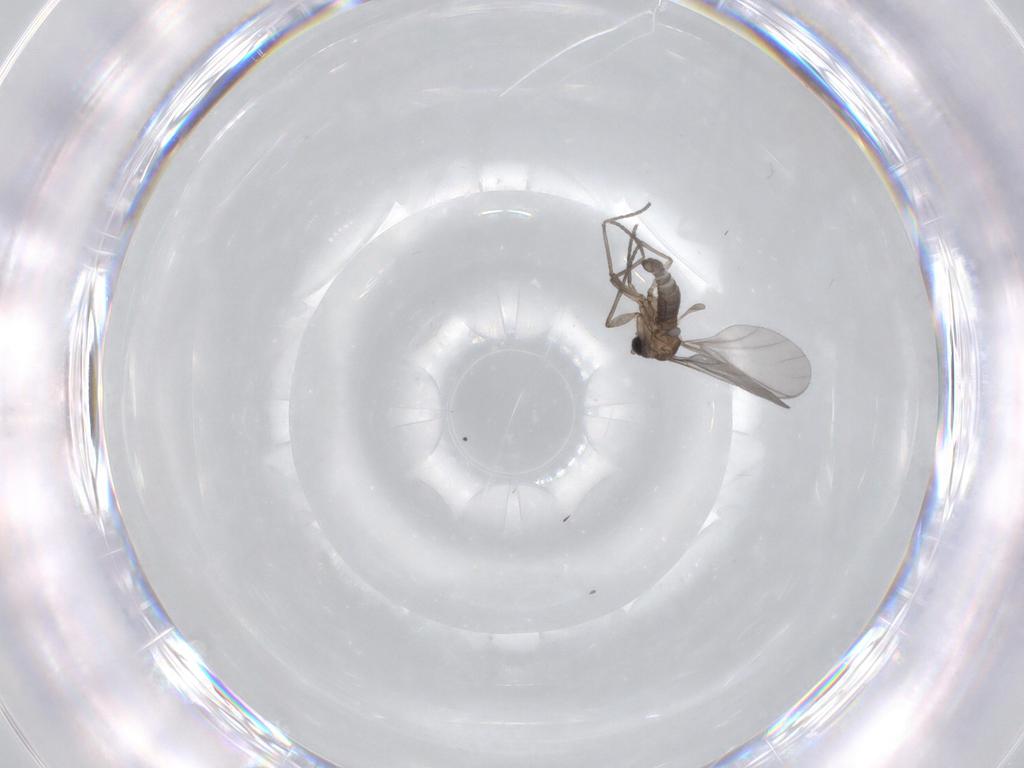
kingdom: Animalia
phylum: Arthropoda
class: Insecta
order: Diptera
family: Sciaridae
